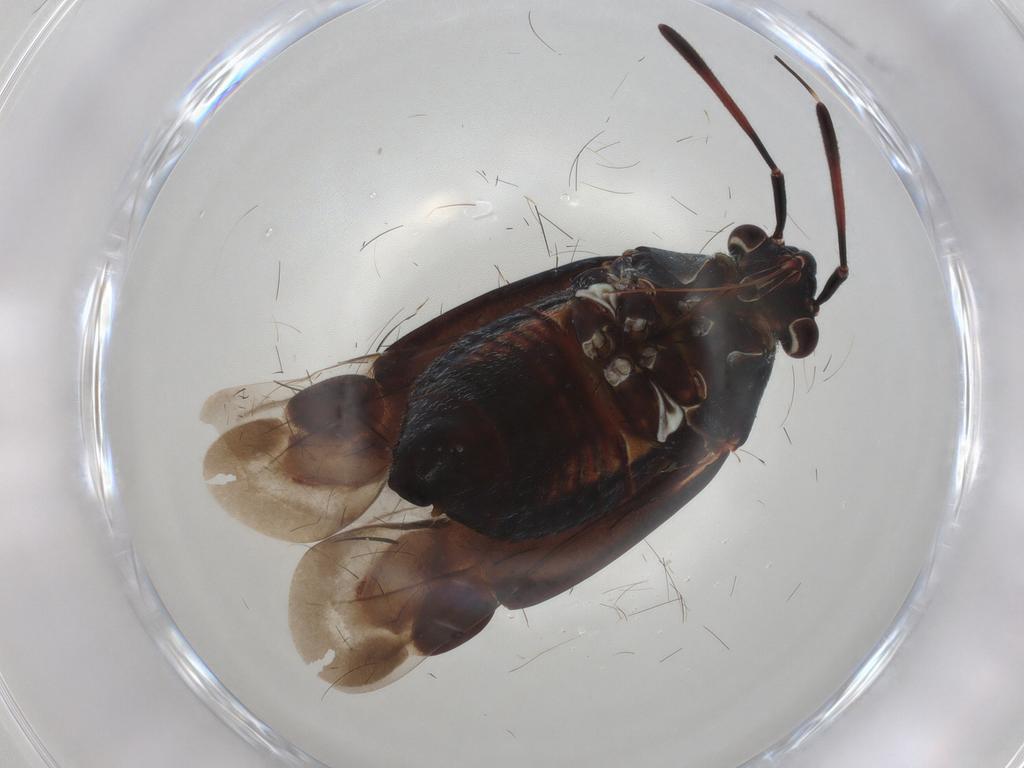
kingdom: Animalia
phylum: Arthropoda
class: Insecta
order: Hemiptera
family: Miridae
